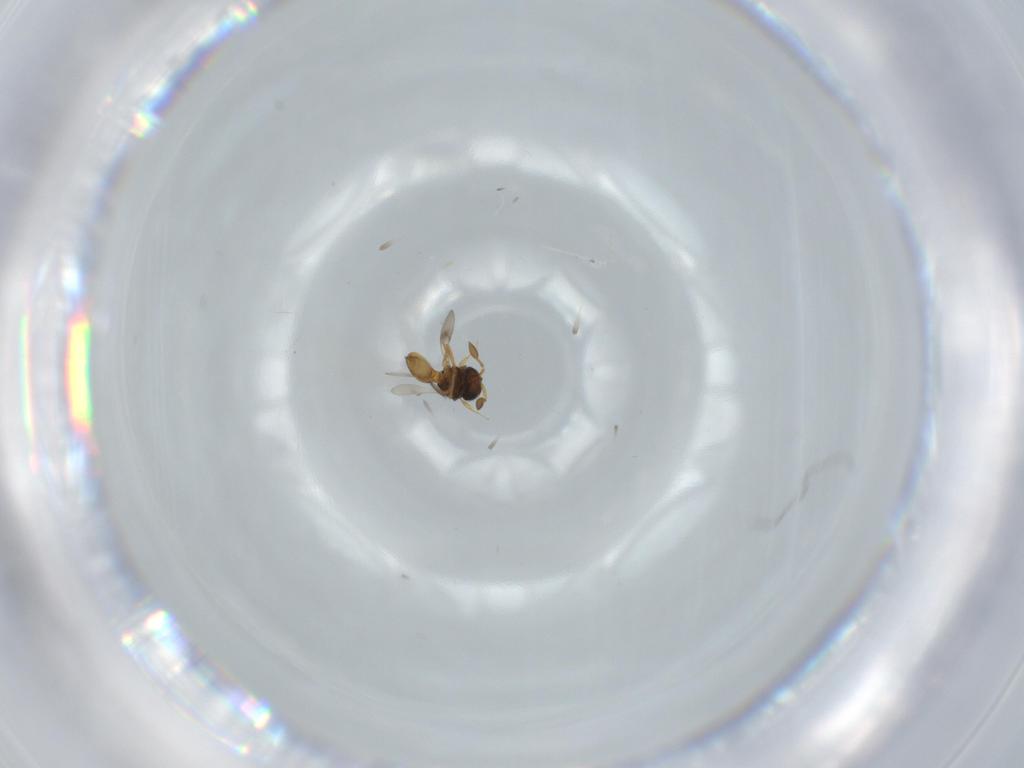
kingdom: Animalia
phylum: Arthropoda
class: Insecta
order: Hymenoptera
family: Scelionidae
